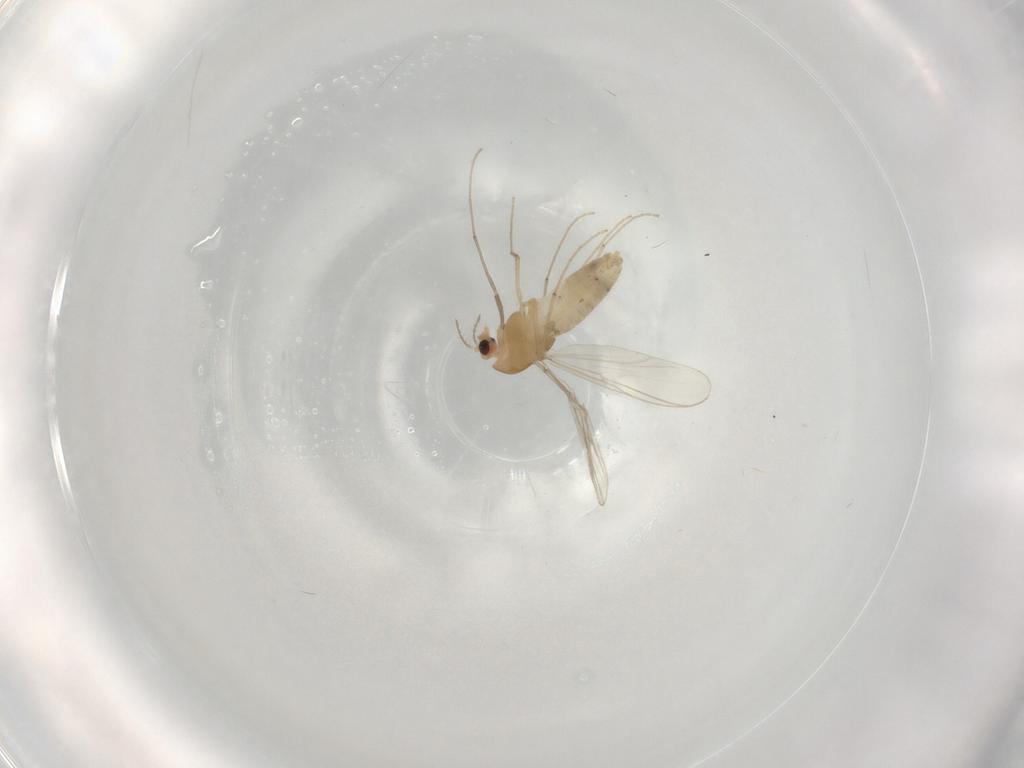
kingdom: Animalia
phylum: Arthropoda
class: Insecta
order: Diptera
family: Chironomidae
